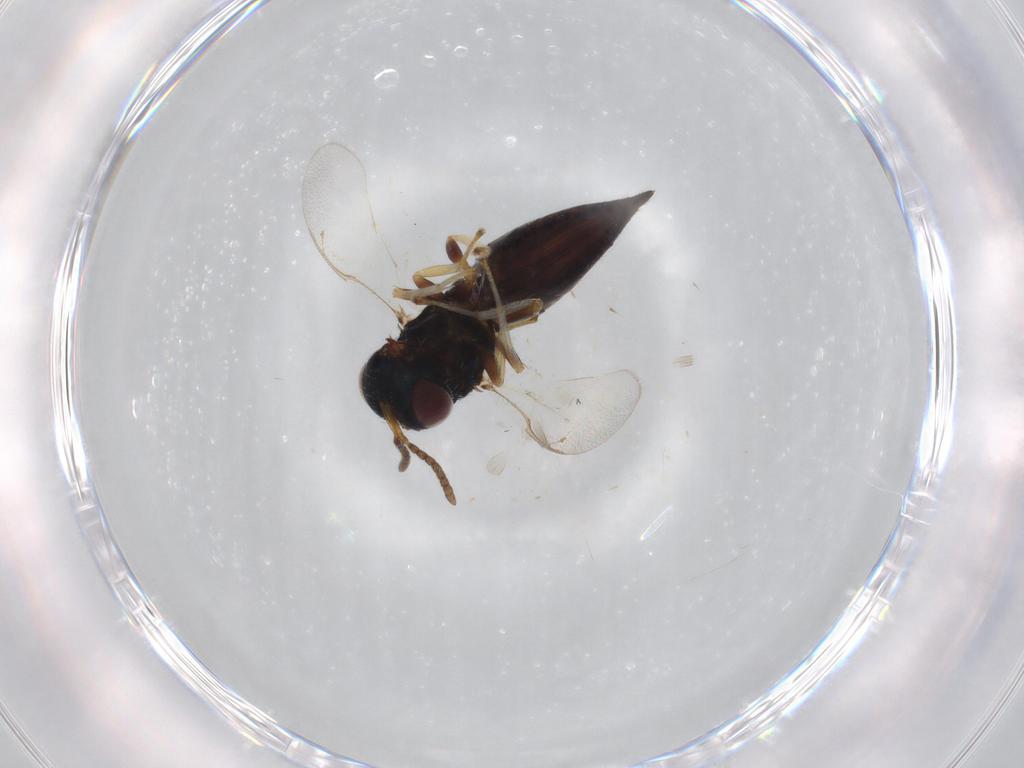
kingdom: Animalia
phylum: Arthropoda
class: Insecta
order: Hymenoptera
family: Pteromalidae
